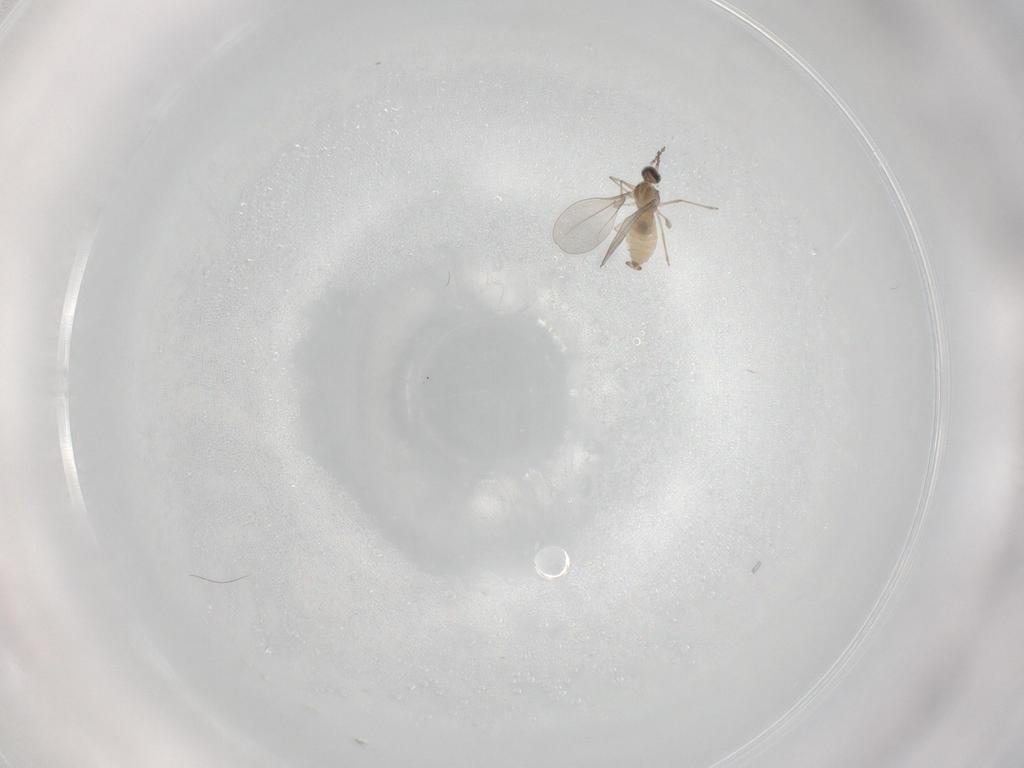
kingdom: Animalia
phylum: Arthropoda
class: Insecta
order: Diptera
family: Cecidomyiidae
